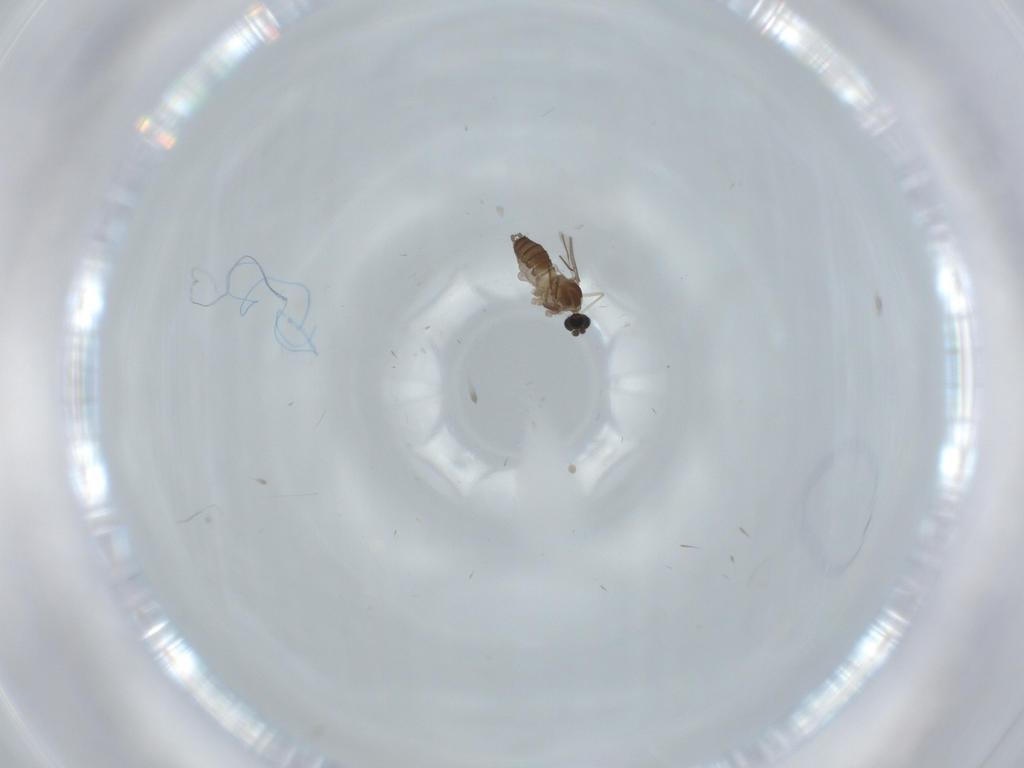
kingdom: Animalia
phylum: Arthropoda
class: Insecta
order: Diptera
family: Cecidomyiidae
